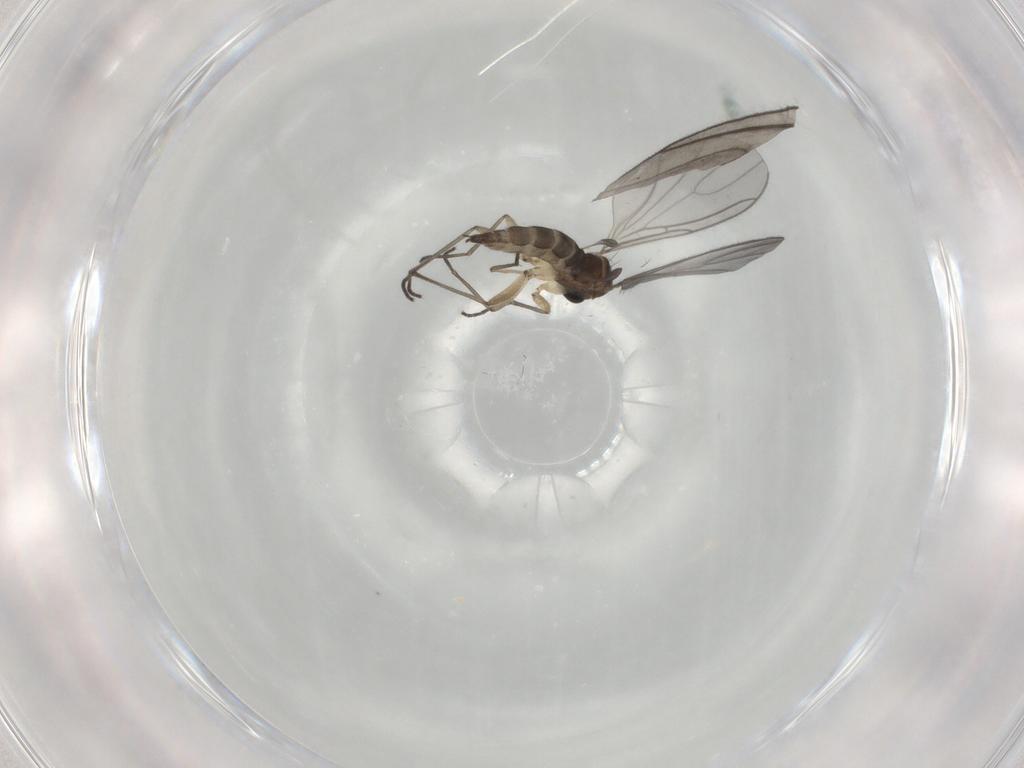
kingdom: Animalia
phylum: Arthropoda
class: Insecta
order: Diptera
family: Sciaridae
